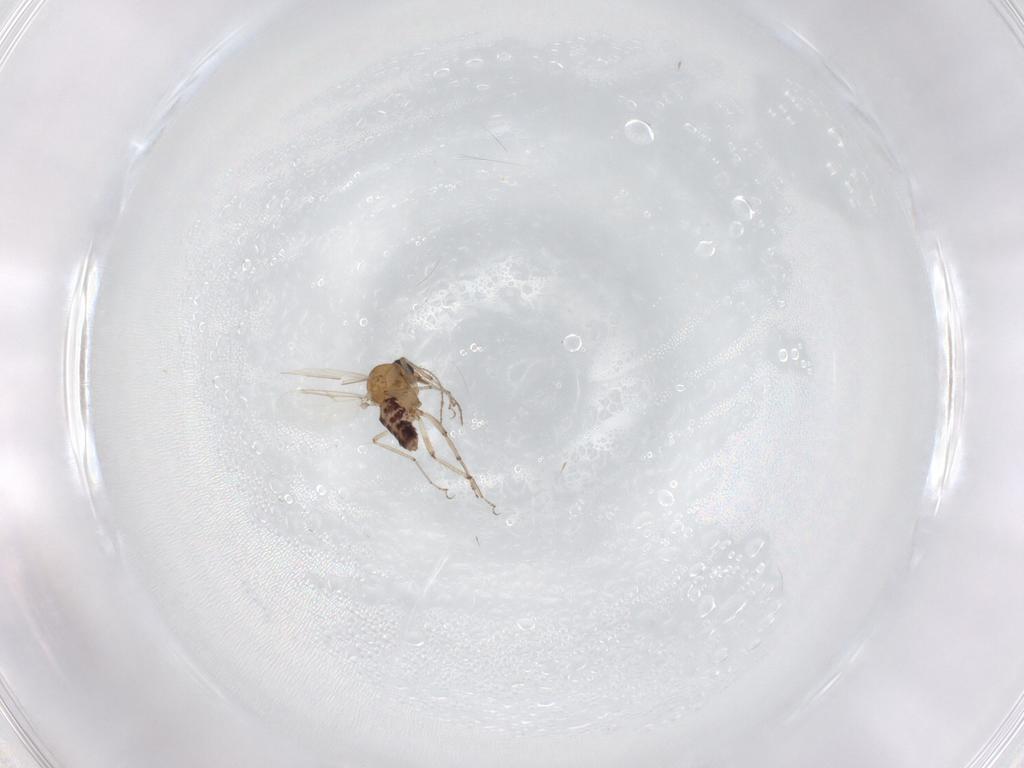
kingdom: Animalia
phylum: Arthropoda
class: Insecta
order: Diptera
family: Ceratopogonidae
